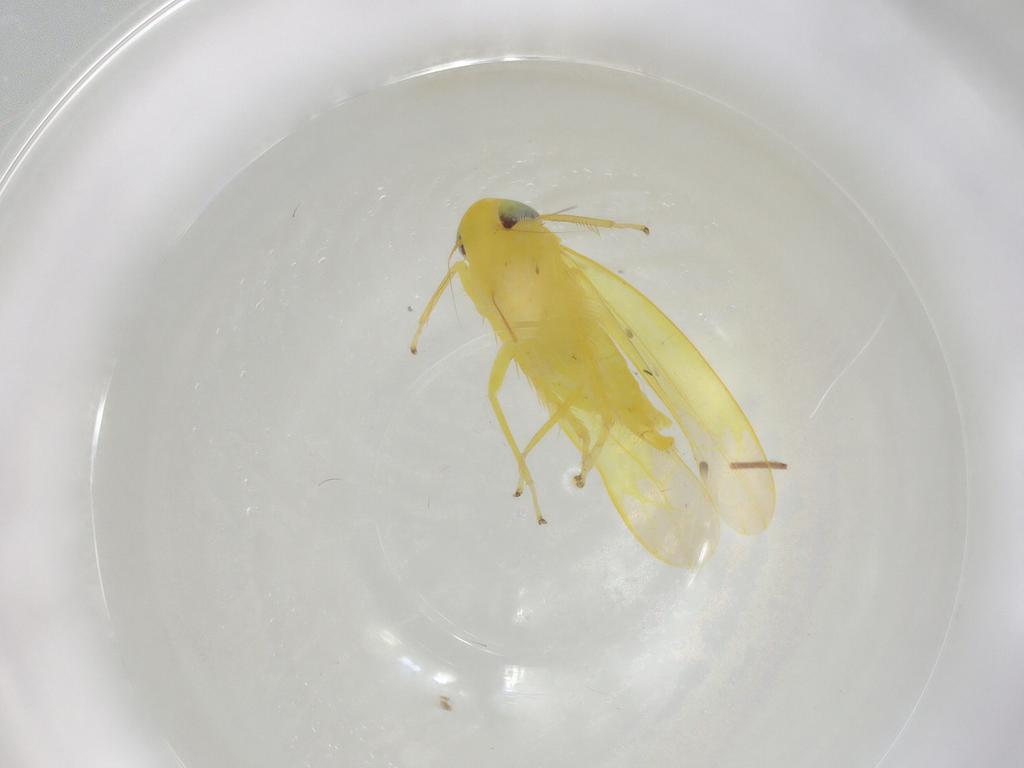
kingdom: Animalia
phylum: Arthropoda
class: Insecta
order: Hemiptera
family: Cicadellidae
